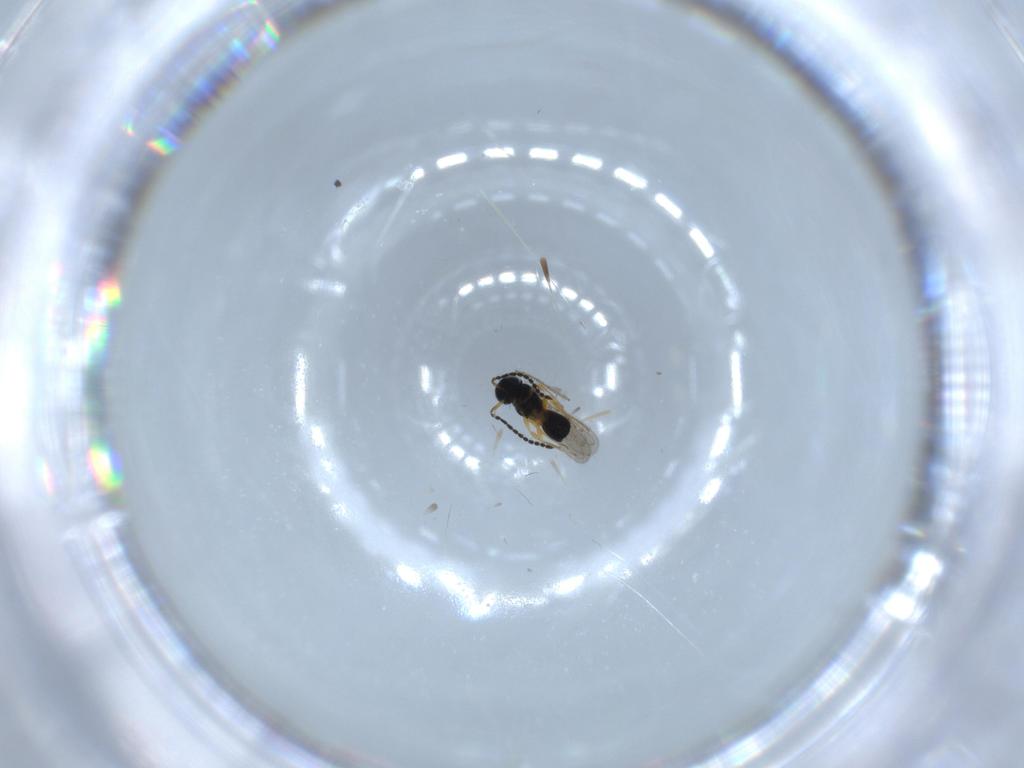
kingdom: Animalia
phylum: Arthropoda
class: Insecta
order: Hymenoptera
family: Scelionidae
